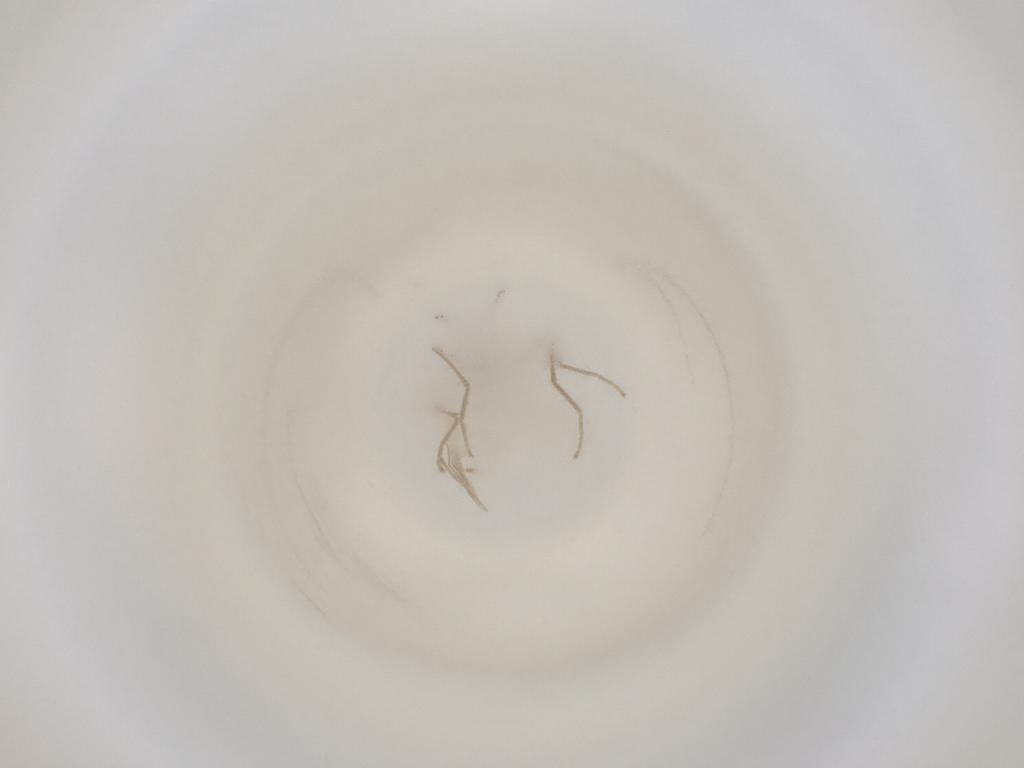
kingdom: Animalia
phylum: Arthropoda
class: Insecta
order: Diptera
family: Cecidomyiidae
